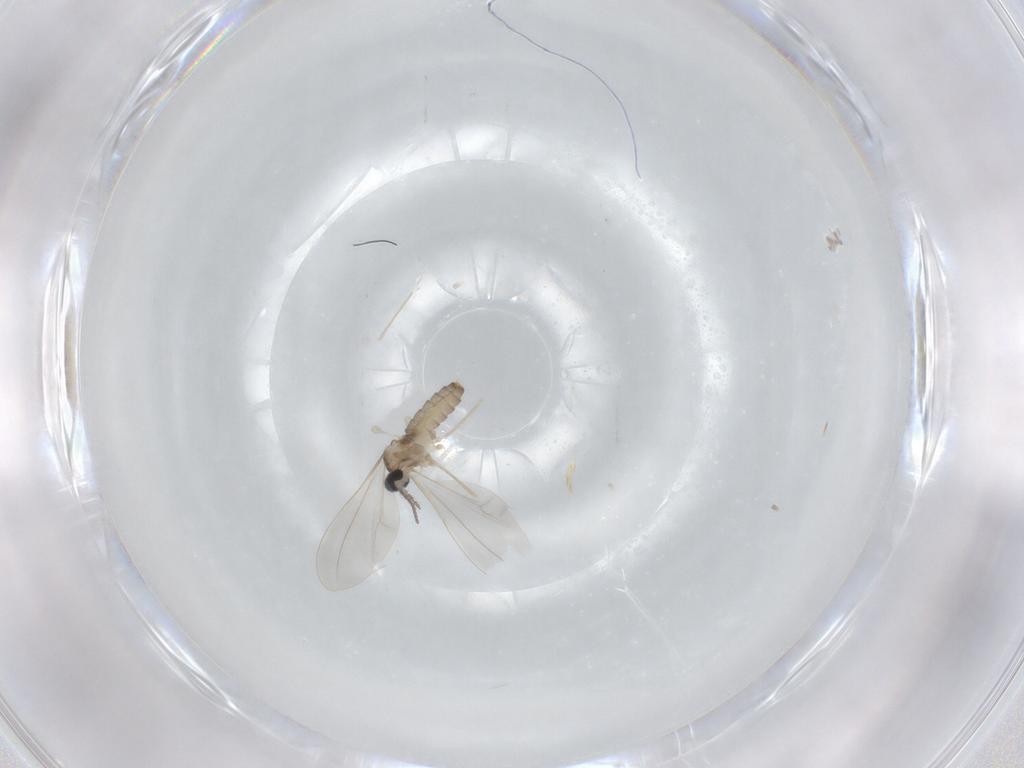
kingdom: Animalia
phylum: Arthropoda
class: Insecta
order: Diptera
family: Cecidomyiidae
